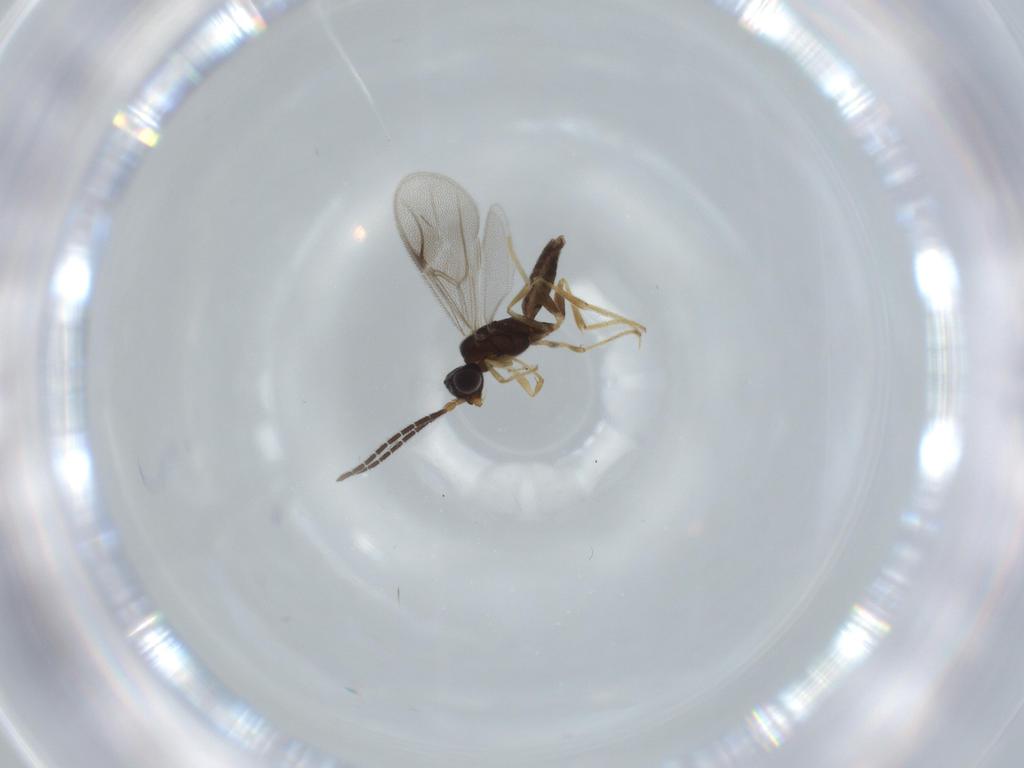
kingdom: Animalia
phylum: Arthropoda
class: Insecta
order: Hymenoptera
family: Dryinidae
